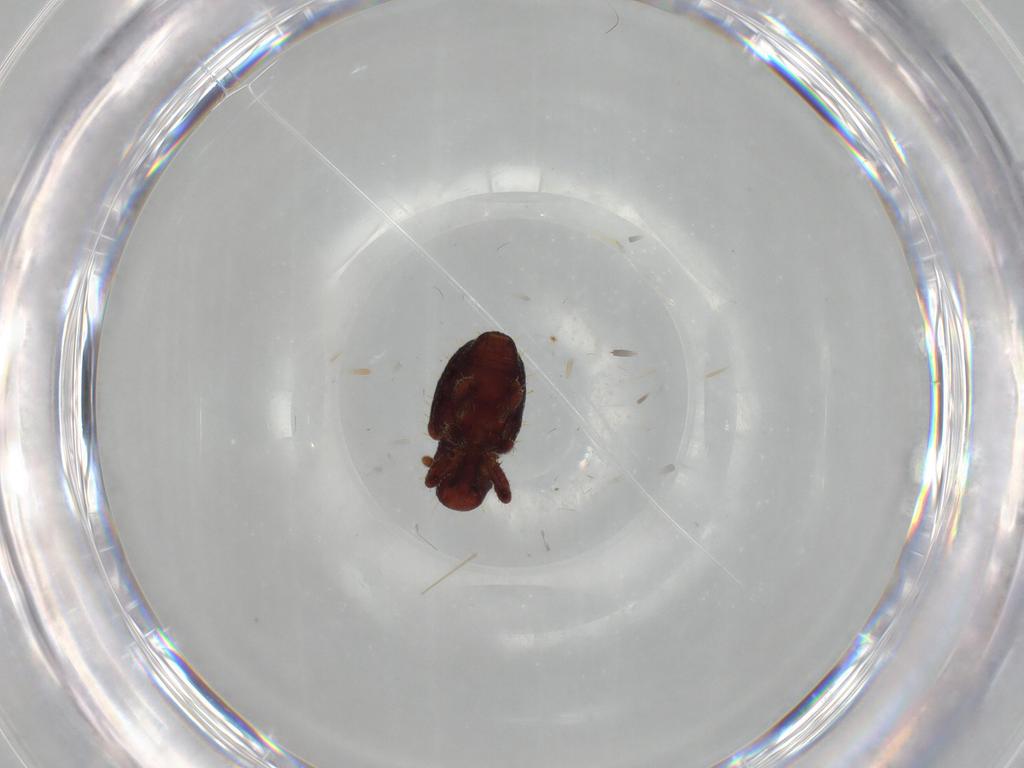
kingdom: Animalia
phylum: Arthropoda
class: Insecta
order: Coleoptera
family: Curculionidae
